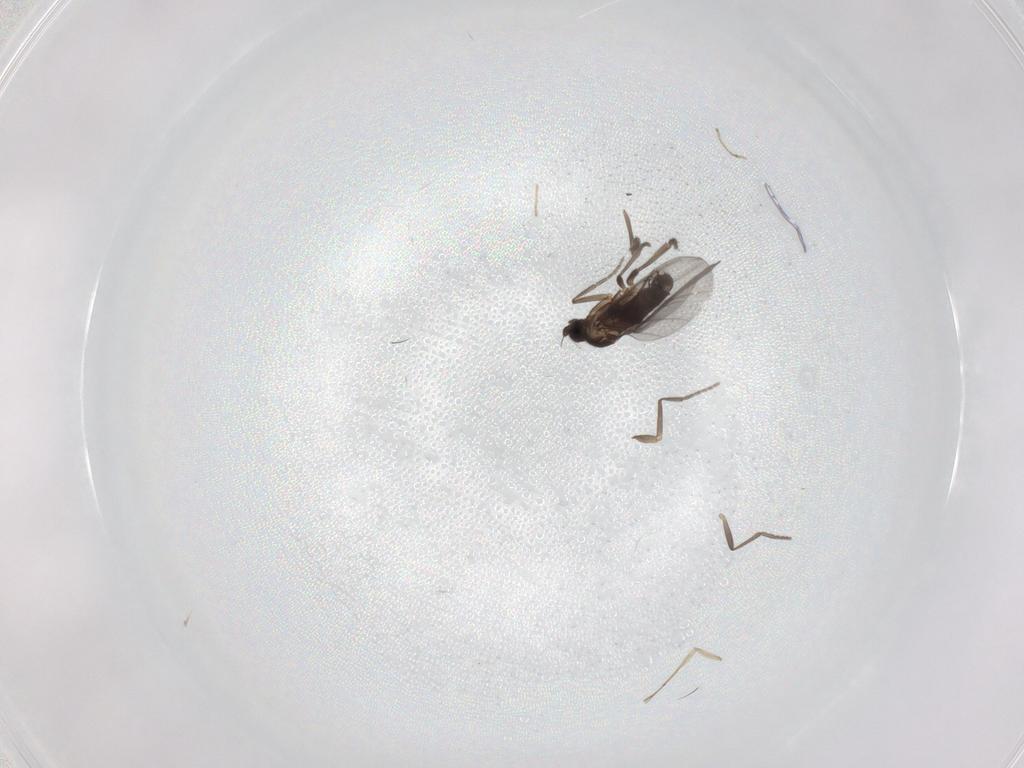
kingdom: Animalia
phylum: Arthropoda
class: Insecta
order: Diptera
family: Phoridae
